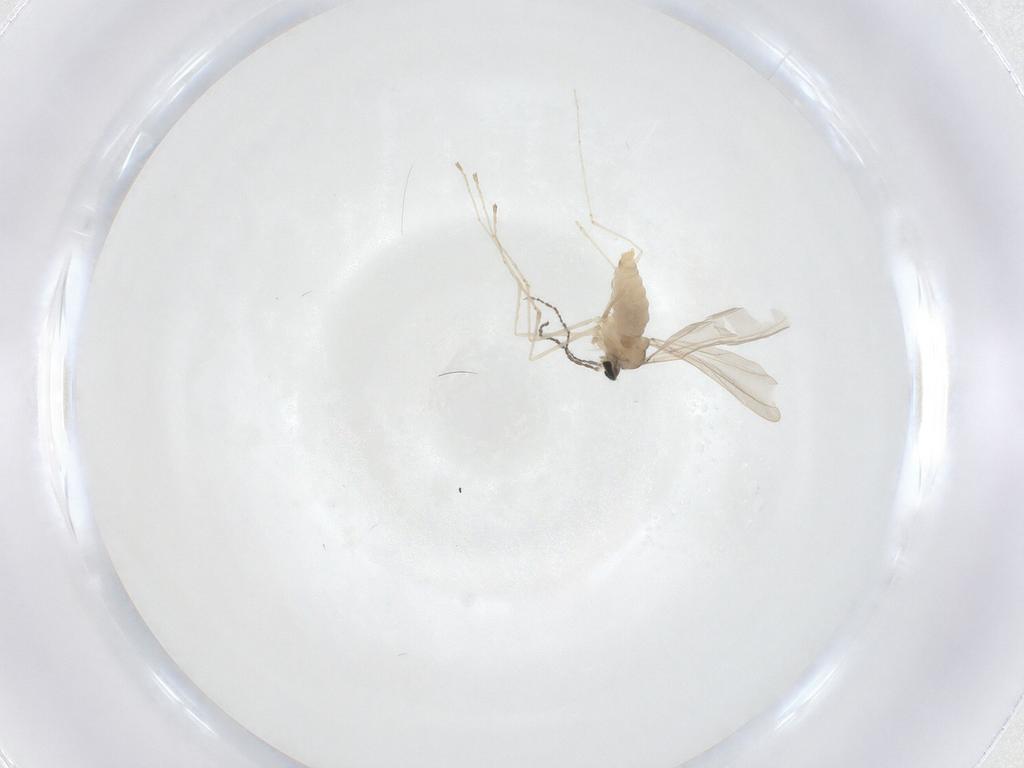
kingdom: Animalia
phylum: Arthropoda
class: Insecta
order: Diptera
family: Cecidomyiidae
